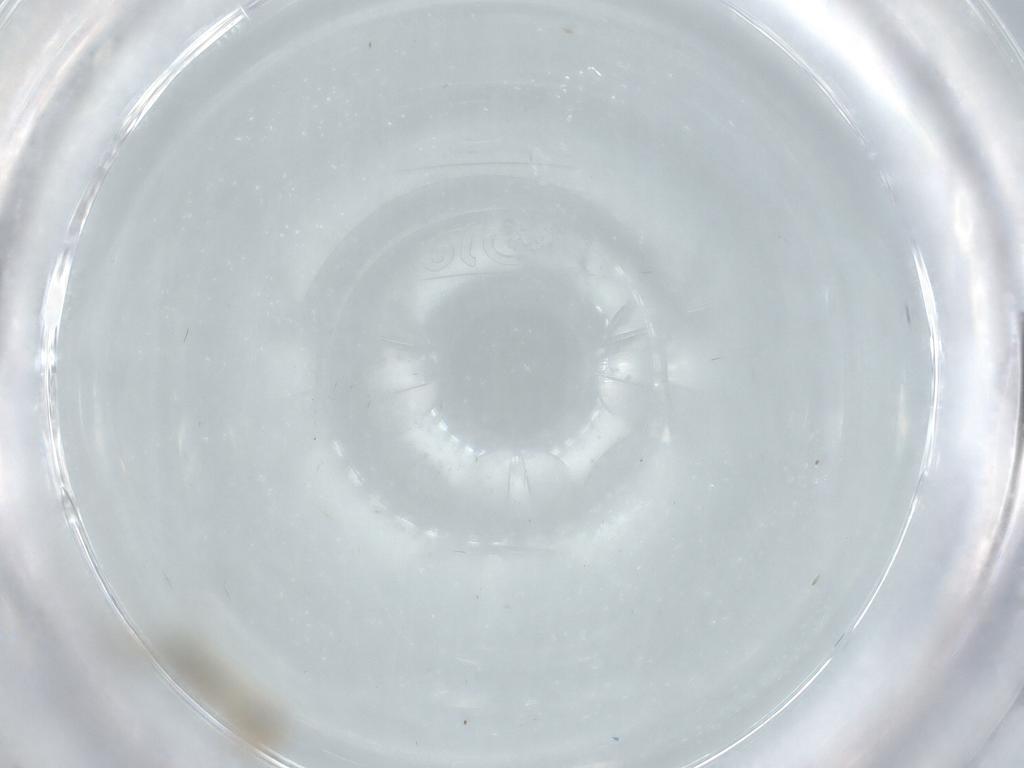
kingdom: Animalia
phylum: Arthropoda
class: Insecta
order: Diptera
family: Cecidomyiidae
